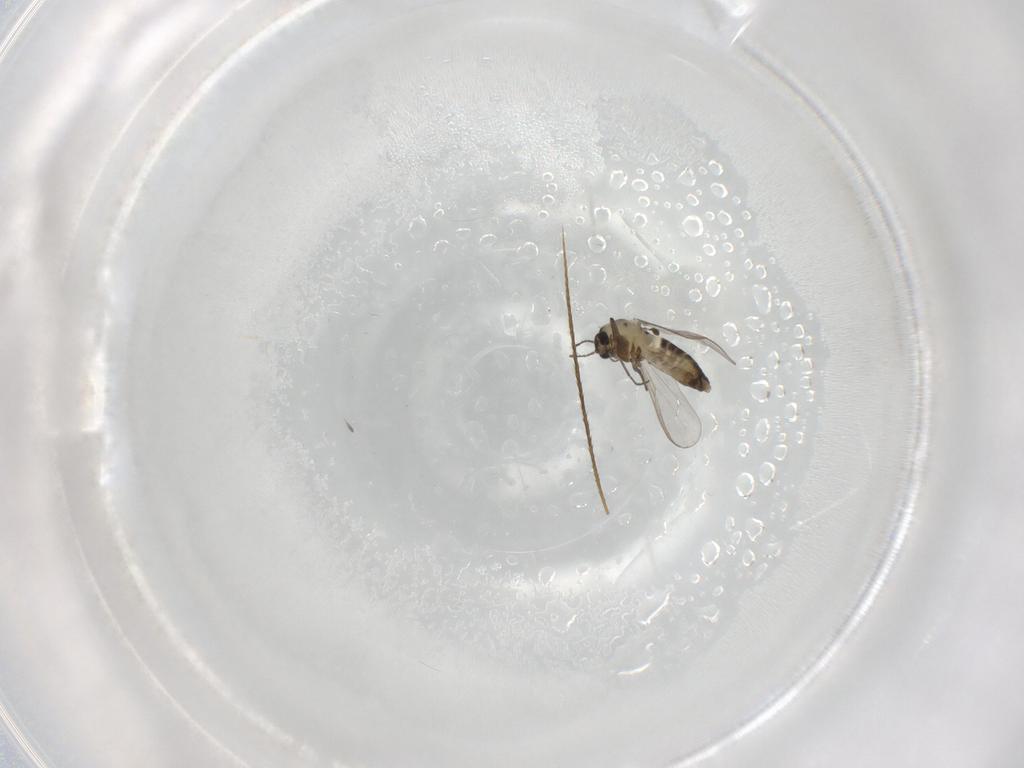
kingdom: Animalia
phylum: Arthropoda
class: Insecta
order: Diptera
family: Chironomidae
